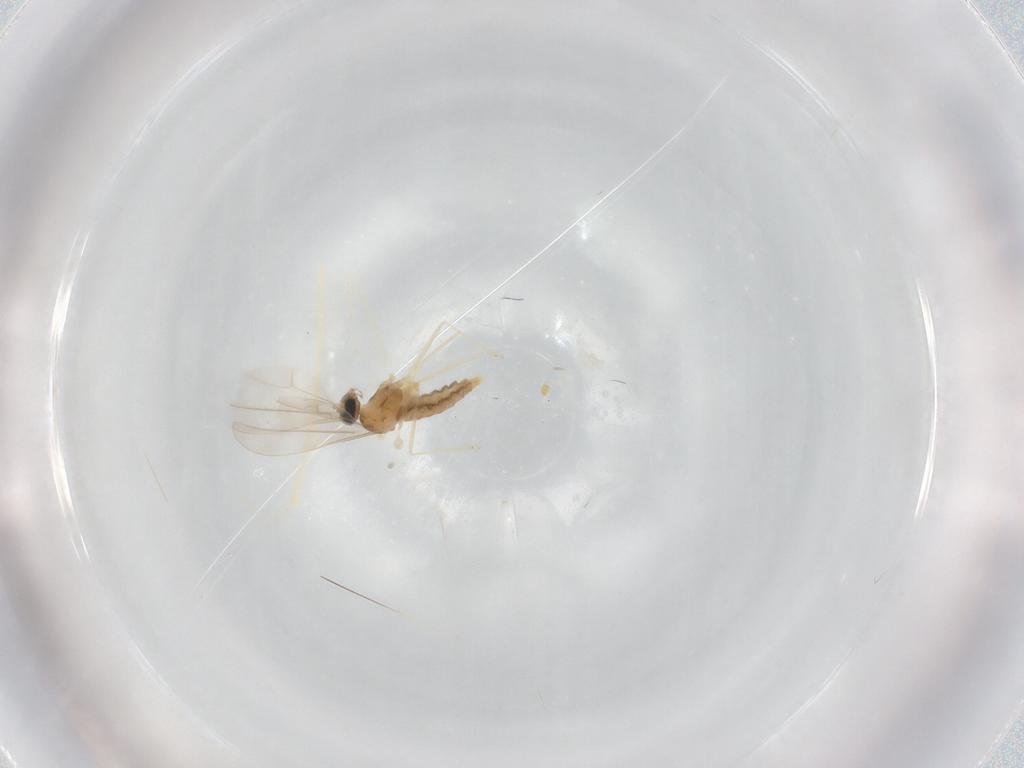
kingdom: Animalia
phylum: Arthropoda
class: Insecta
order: Diptera
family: Cecidomyiidae
